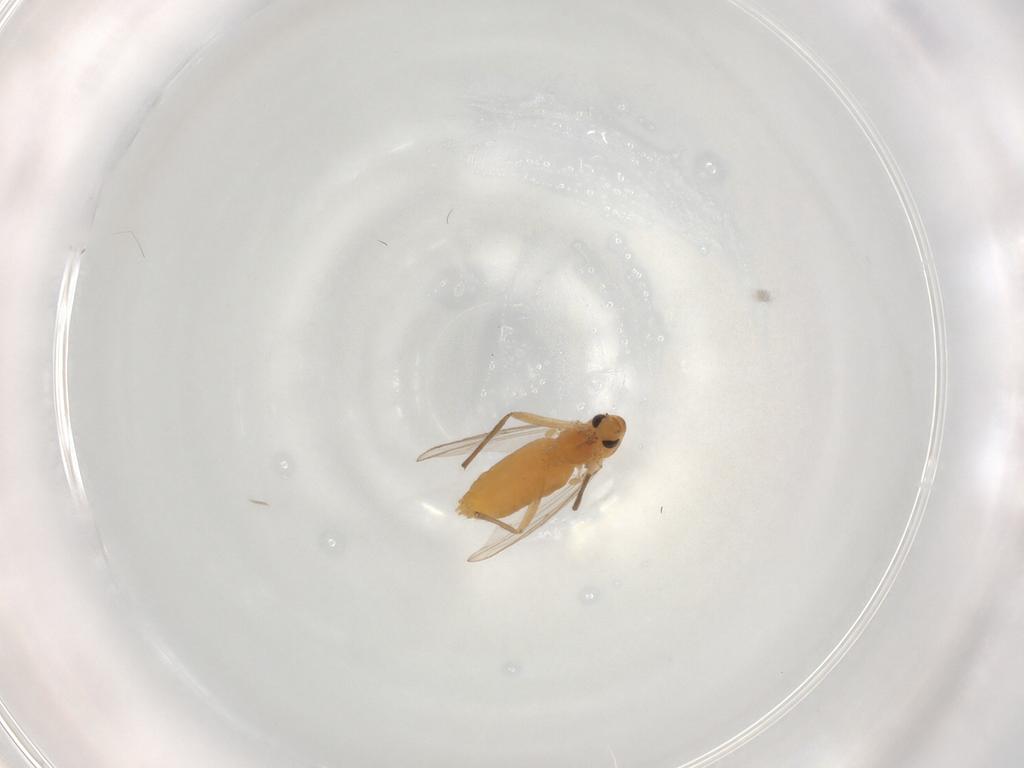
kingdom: Animalia
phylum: Arthropoda
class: Insecta
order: Diptera
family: Chironomidae
